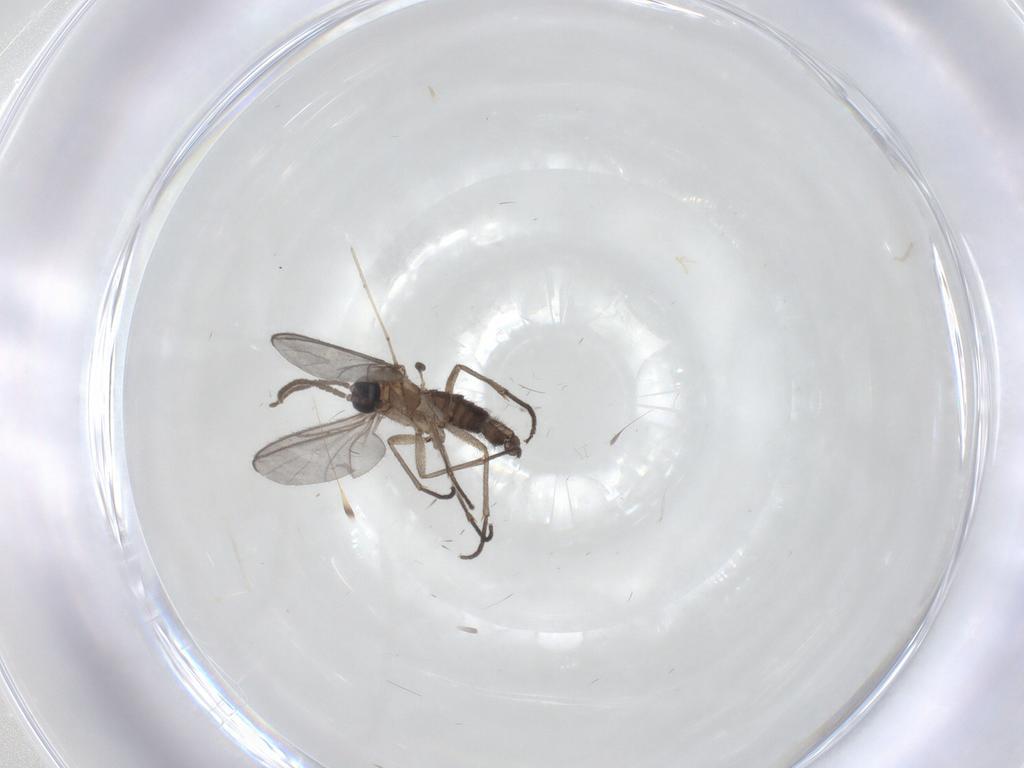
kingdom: Animalia
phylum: Arthropoda
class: Insecta
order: Diptera
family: Cecidomyiidae
